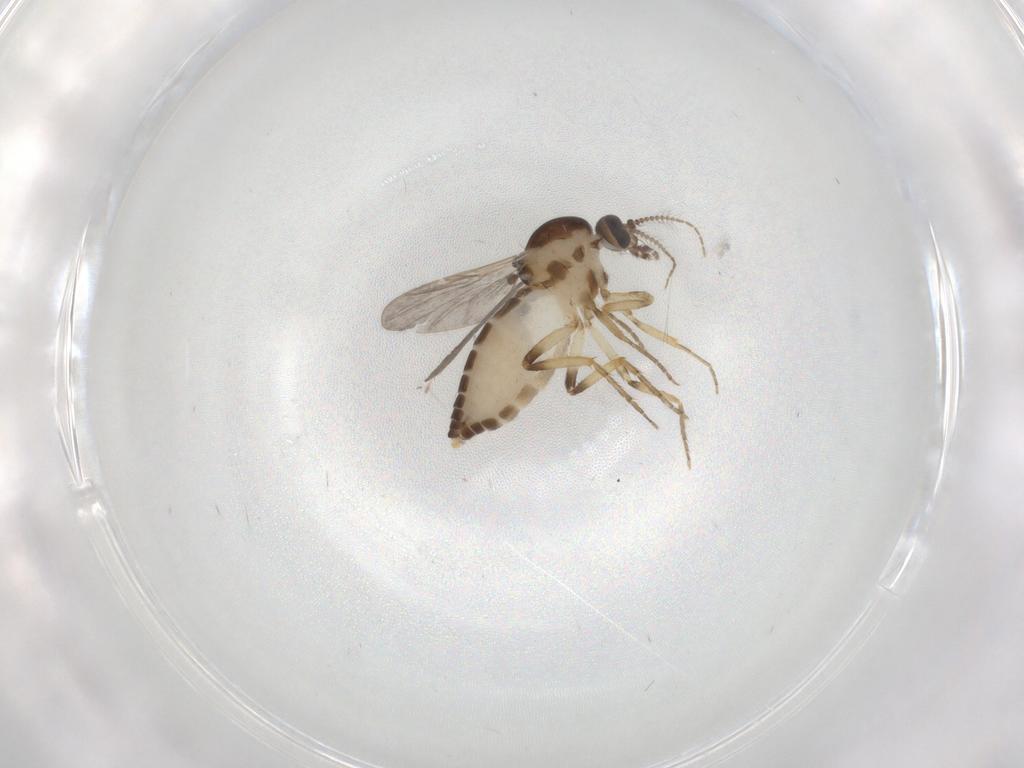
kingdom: Animalia
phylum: Arthropoda
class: Insecta
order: Diptera
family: Ceratopogonidae
